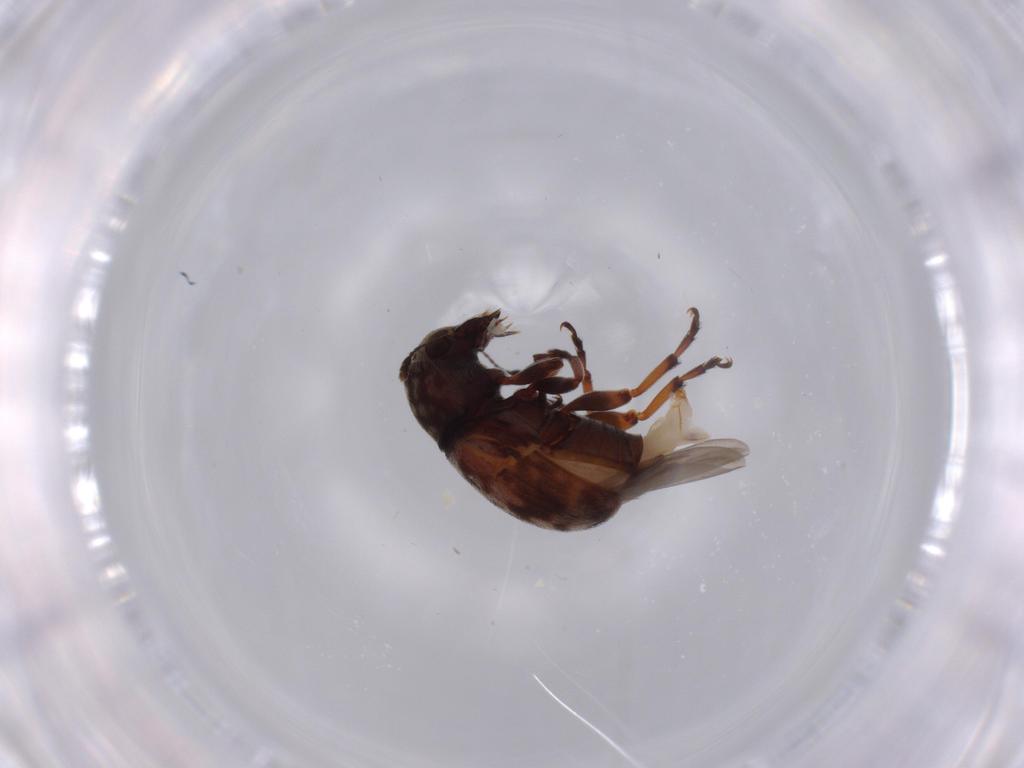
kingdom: Animalia
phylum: Arthropoda
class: Insecta
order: Coleoptera
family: Anthribidae
